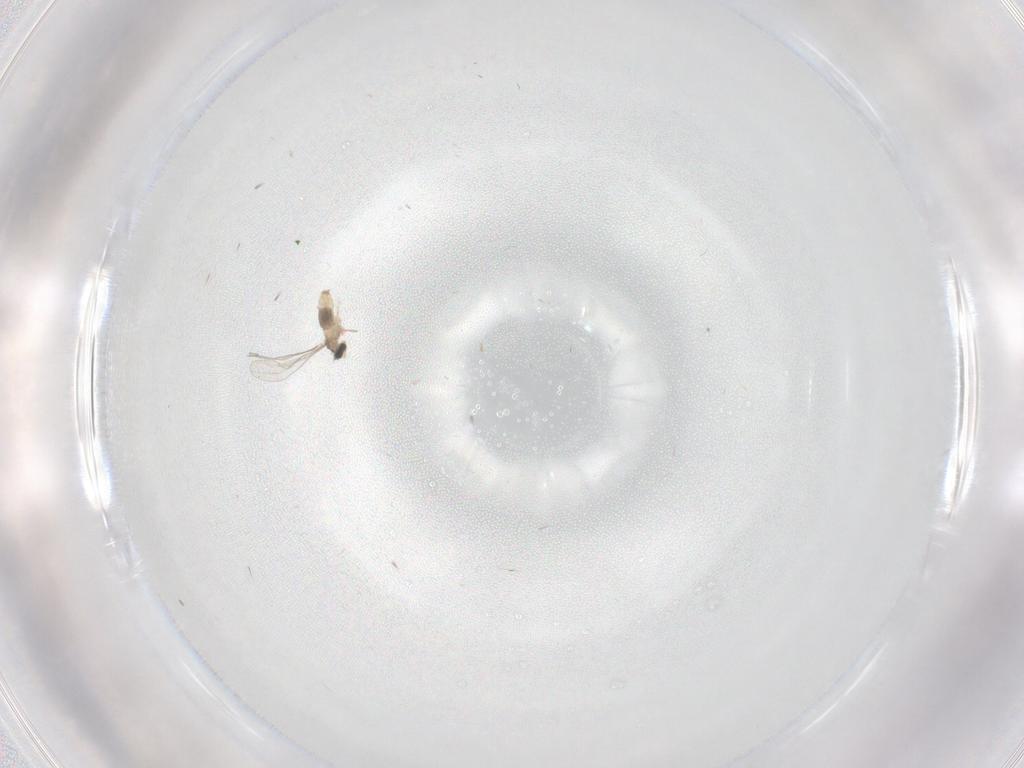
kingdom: Animalia
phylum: Arthropoda
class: Insecta
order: Diptera
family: Cecidomyiidae
